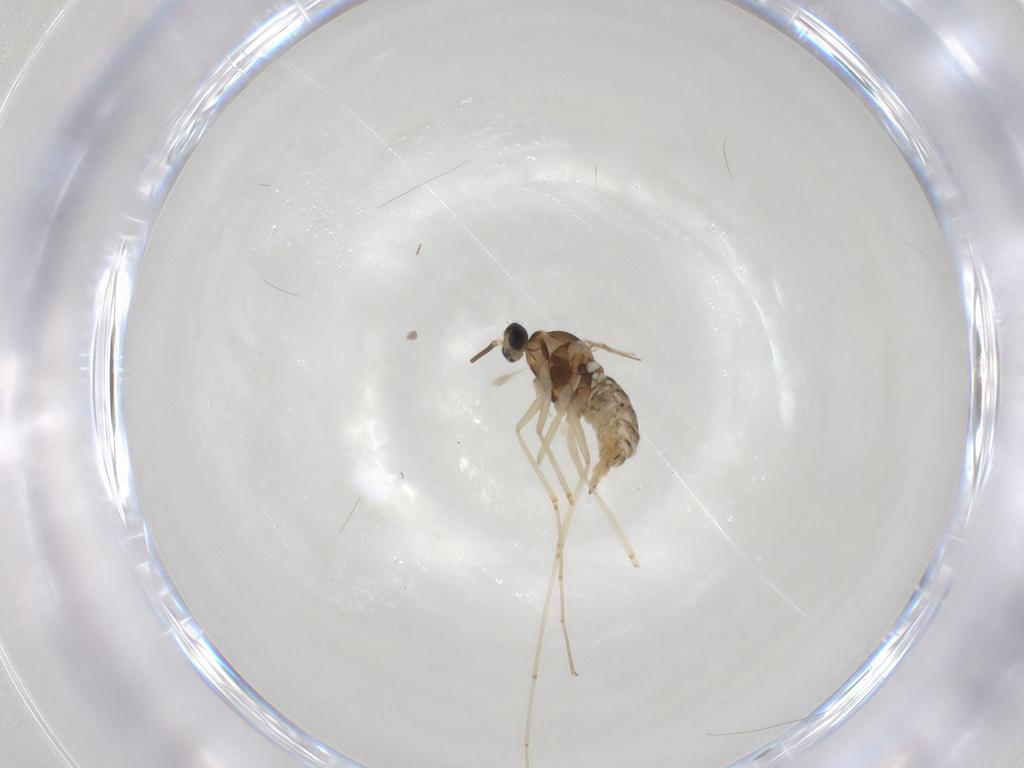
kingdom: Animalia
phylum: Arthropoda
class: Insecta
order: Diptera
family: Cecidomyiidae
